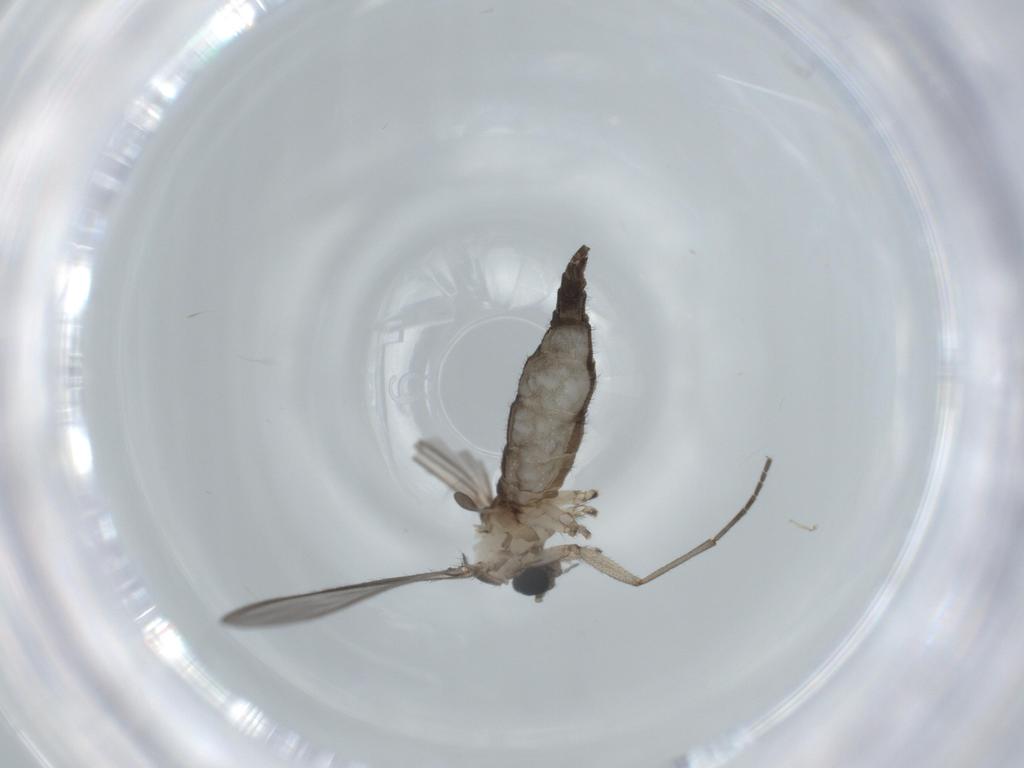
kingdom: Animalia
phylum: Arthropoda
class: Insecta
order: Diptera
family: Sciaridae
